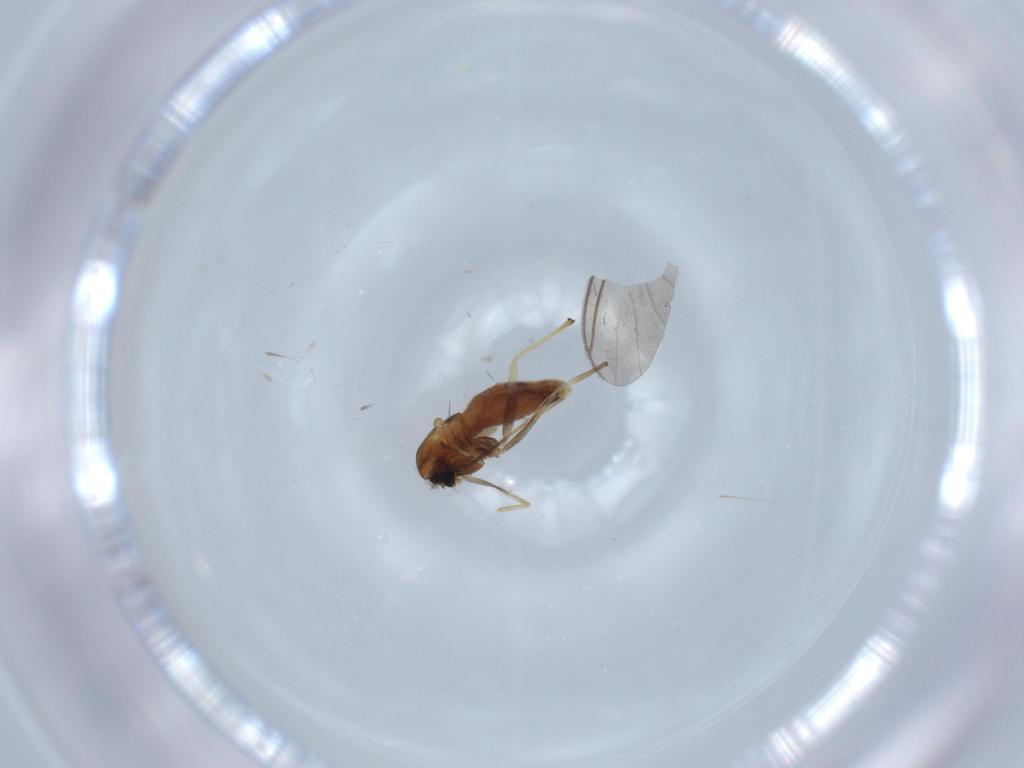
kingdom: Animalia
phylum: Arthropoda
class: Insecta
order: Diptera
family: Chironomidae
